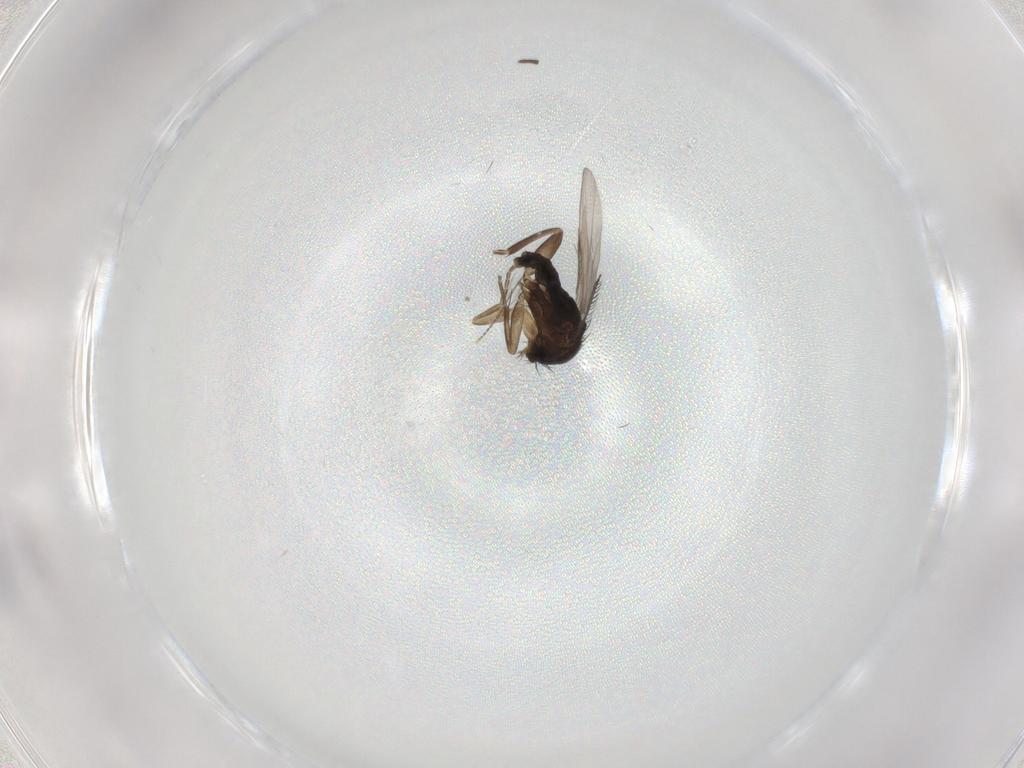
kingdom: Animalia
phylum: Arthropoda
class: Insecta
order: Diptera
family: Phoridae
